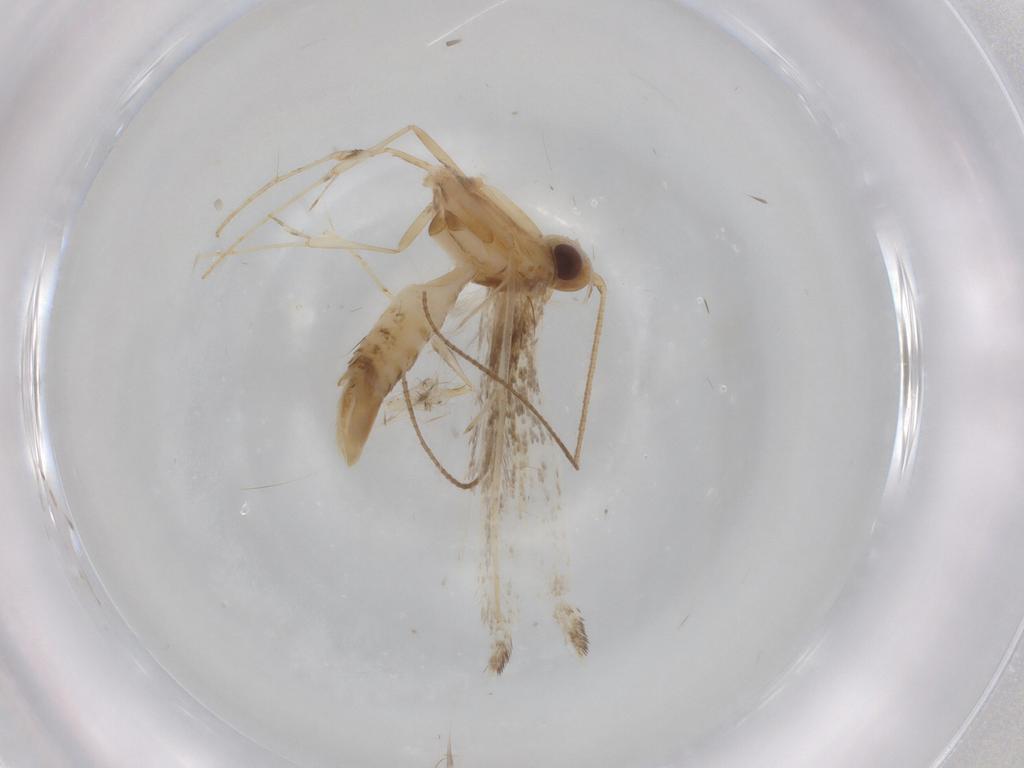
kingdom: Animalia
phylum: Arthropoda
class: Insecta
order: Lepidoptera
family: Gracillariidae
